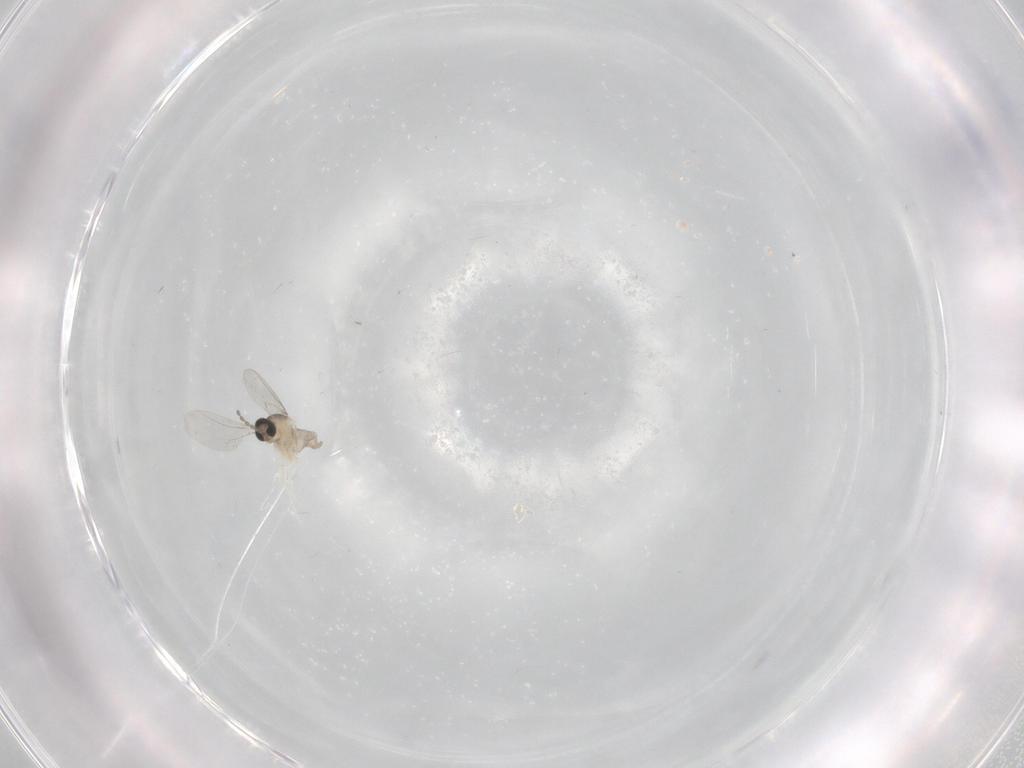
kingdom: Animalia
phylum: Arthropoda
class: Insecta
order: Diptera
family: Cecidomyiidae
